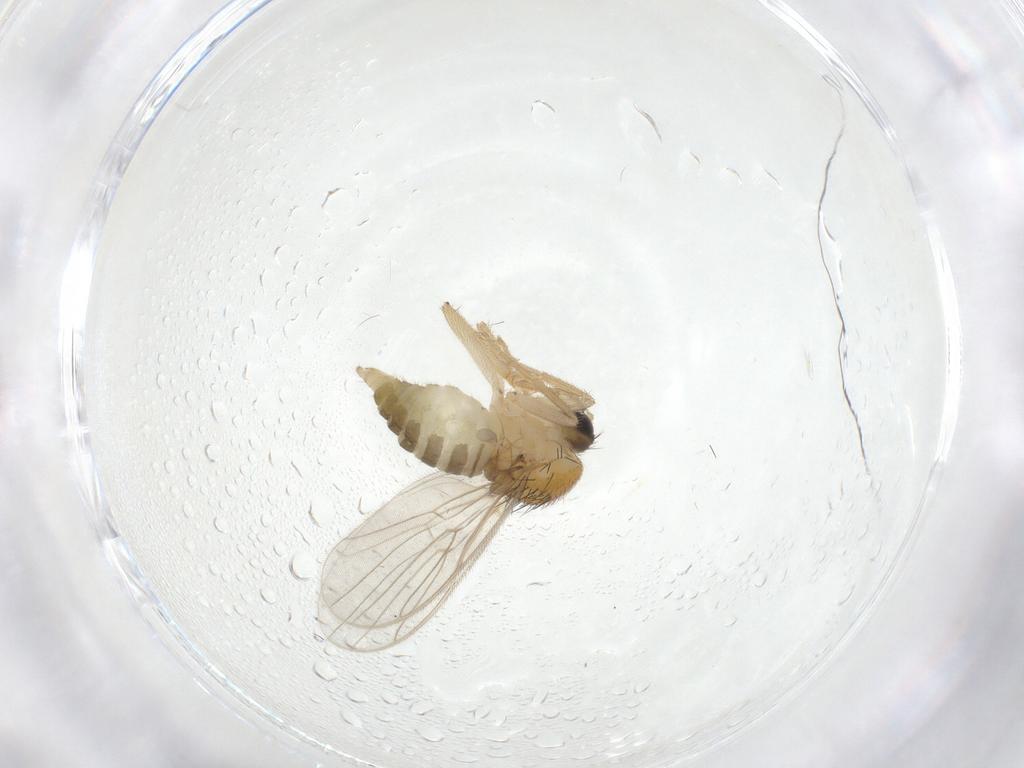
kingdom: Animalia
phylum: Arthropoda
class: Insecta
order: Diptera
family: Hybotidae
